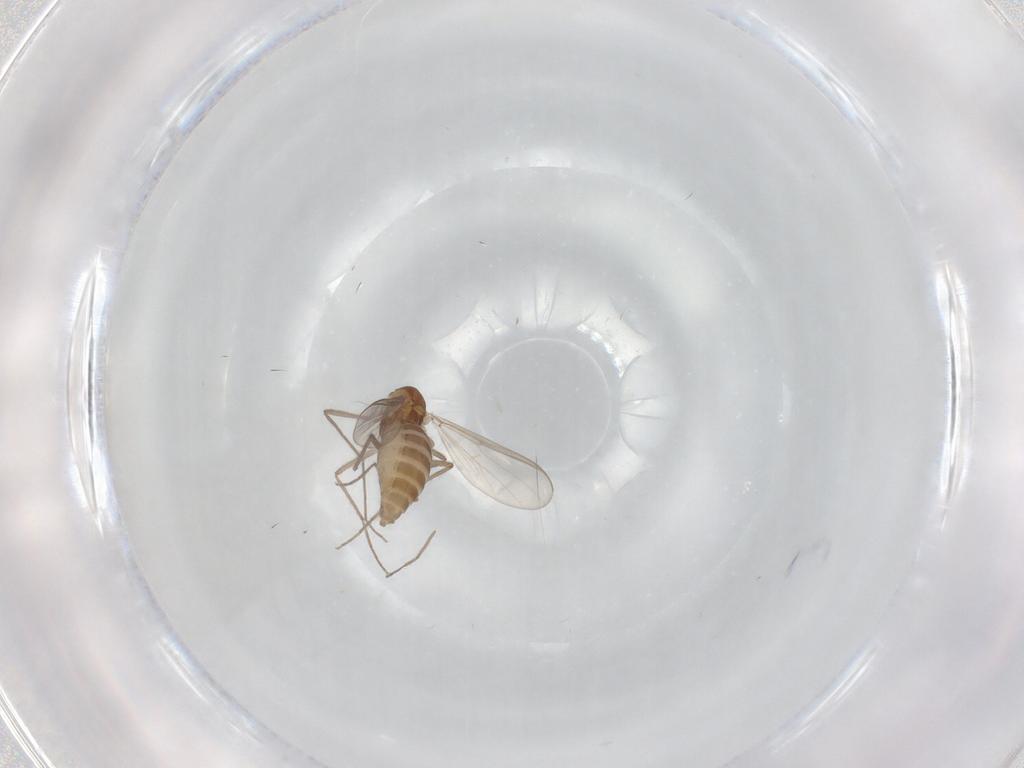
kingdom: Animalia
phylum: Arthropoda
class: Insecta
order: Diptera
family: Chironomidae
